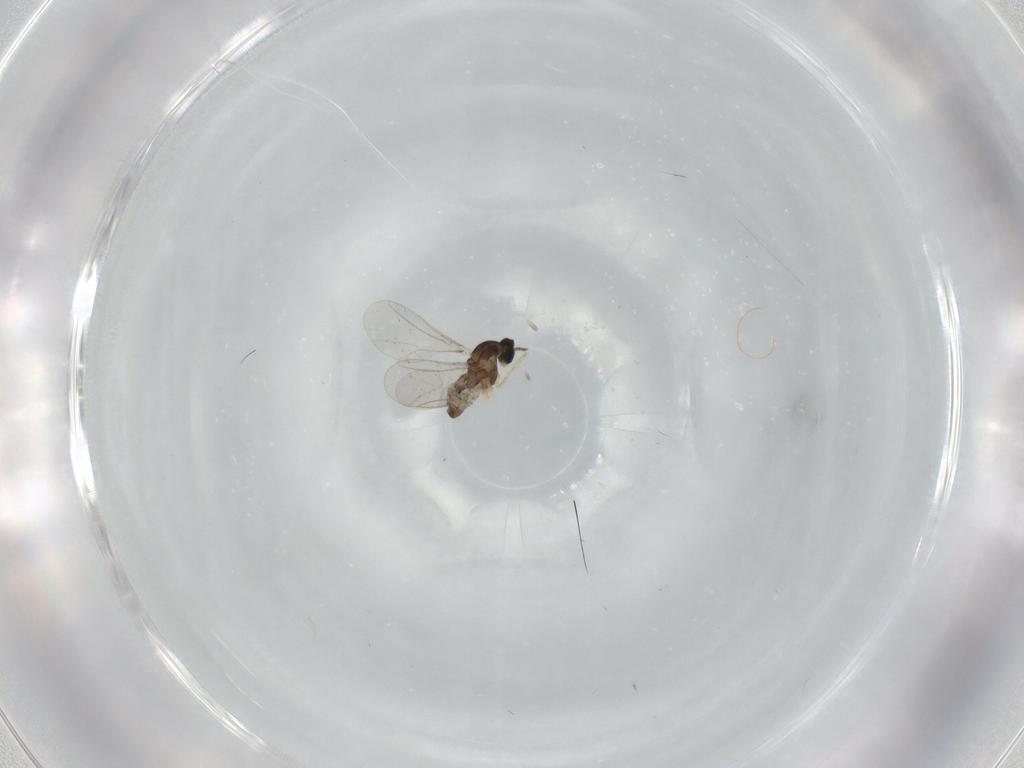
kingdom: Animalia
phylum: Arthropoda
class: Insecta
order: Diptera
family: Cecidomyiidae
